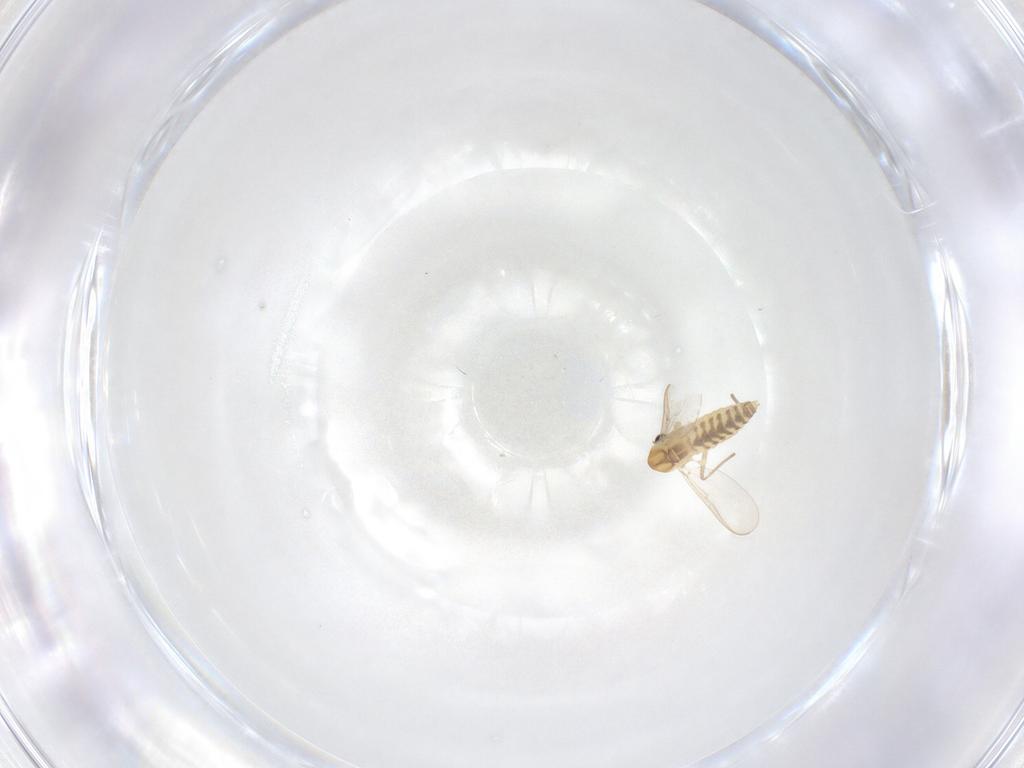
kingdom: Animalia
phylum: Arthropoda
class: Insecta
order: Diptera
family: Chironomidae
